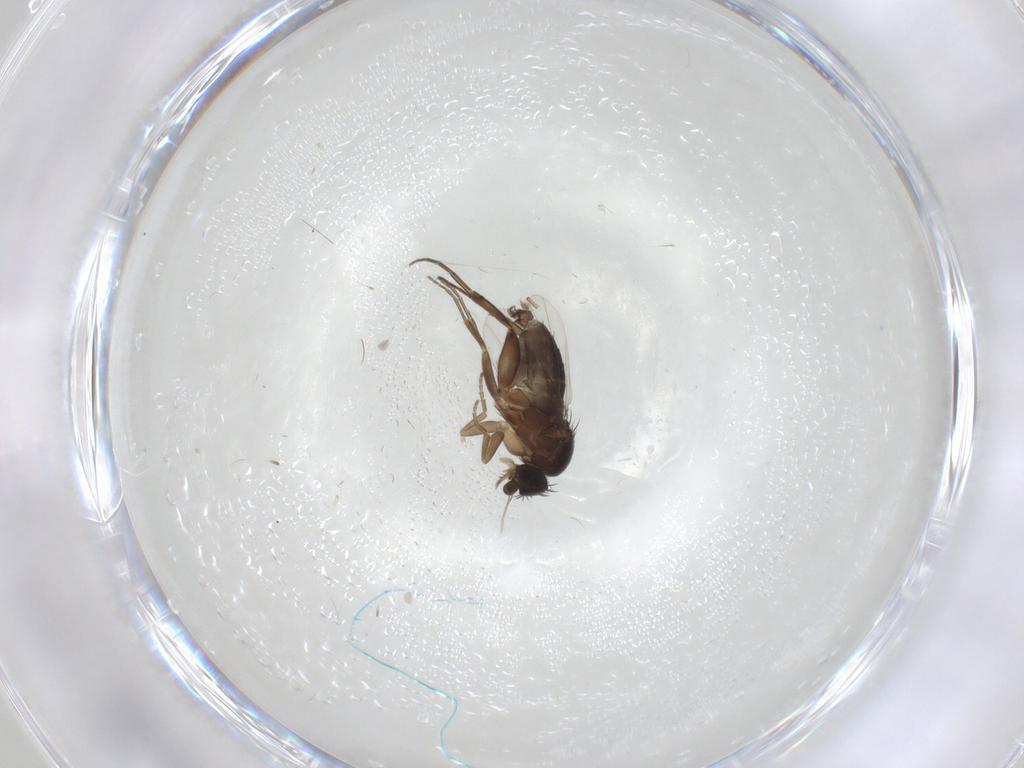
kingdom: Animalia
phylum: Arthropoda
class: Insecta
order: Diptera
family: Phoridae
